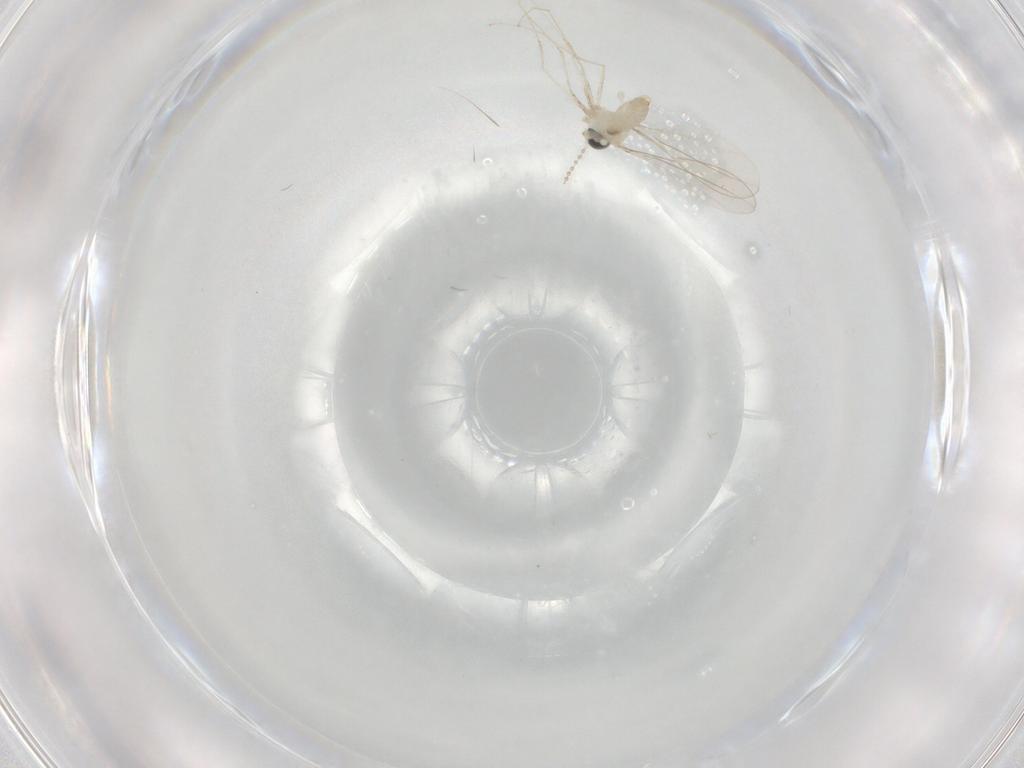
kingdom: Animalia
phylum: Arthropoda
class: Insecta
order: Diptera
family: Cecidomyiidae
